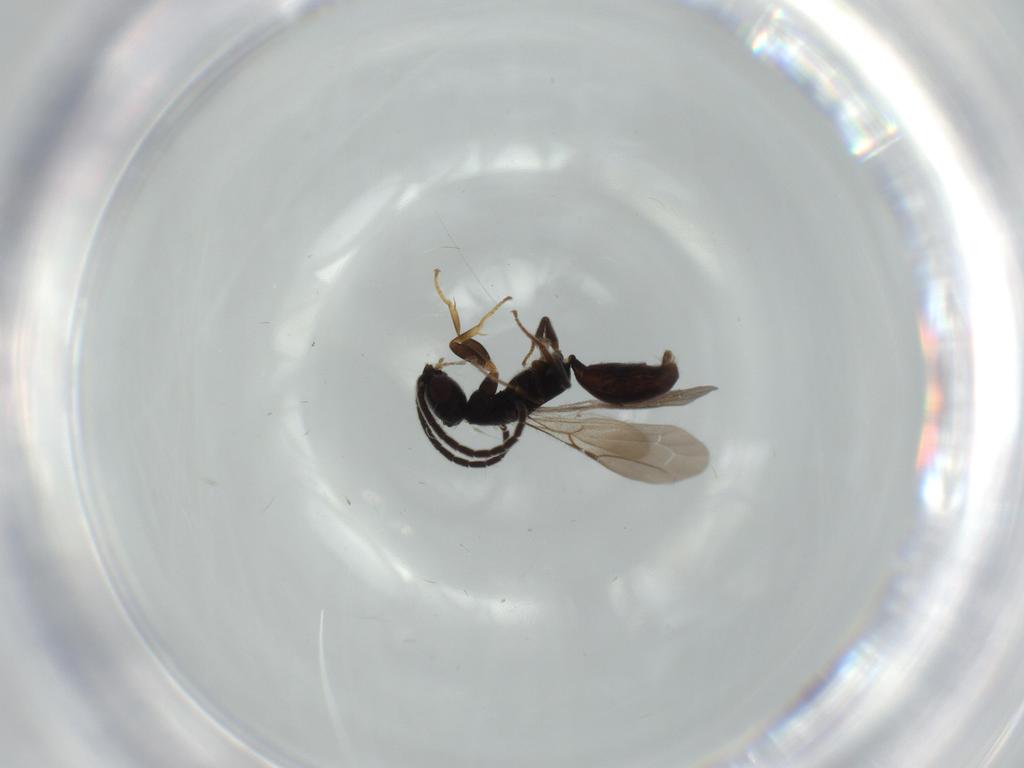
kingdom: Animalia
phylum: Arthropoda
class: Insecta
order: Hymenoptera
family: Bethylidae
